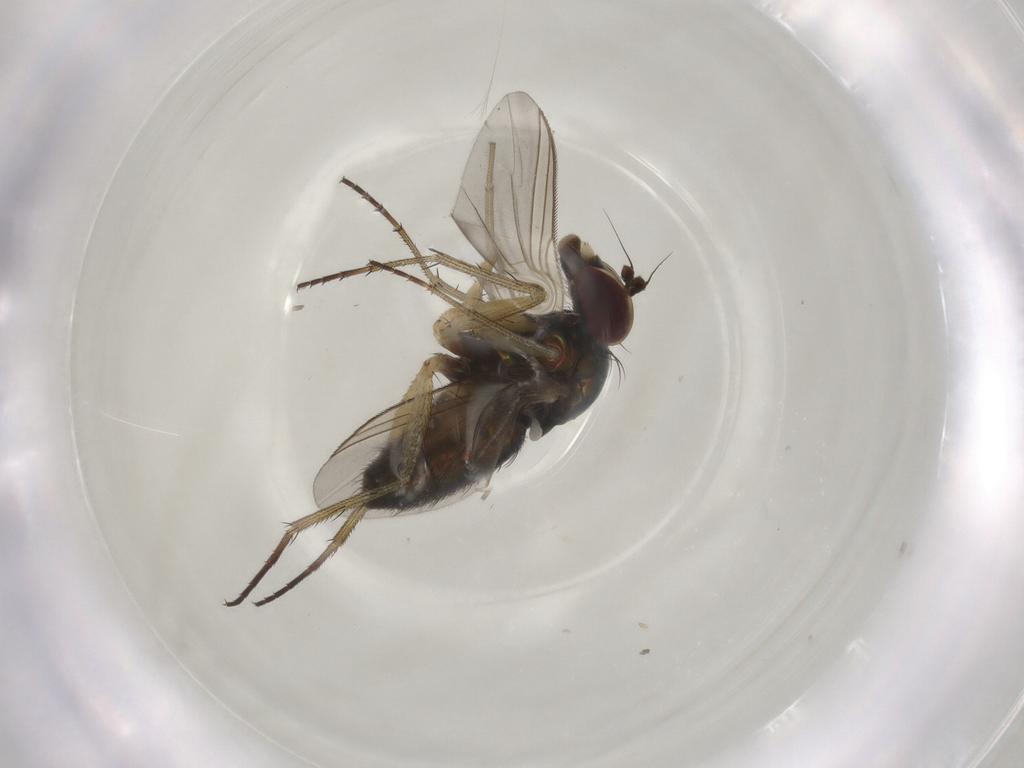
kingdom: Animalia
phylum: Arthropoda
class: Insecta
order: Diptera
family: Dolichopodidae
